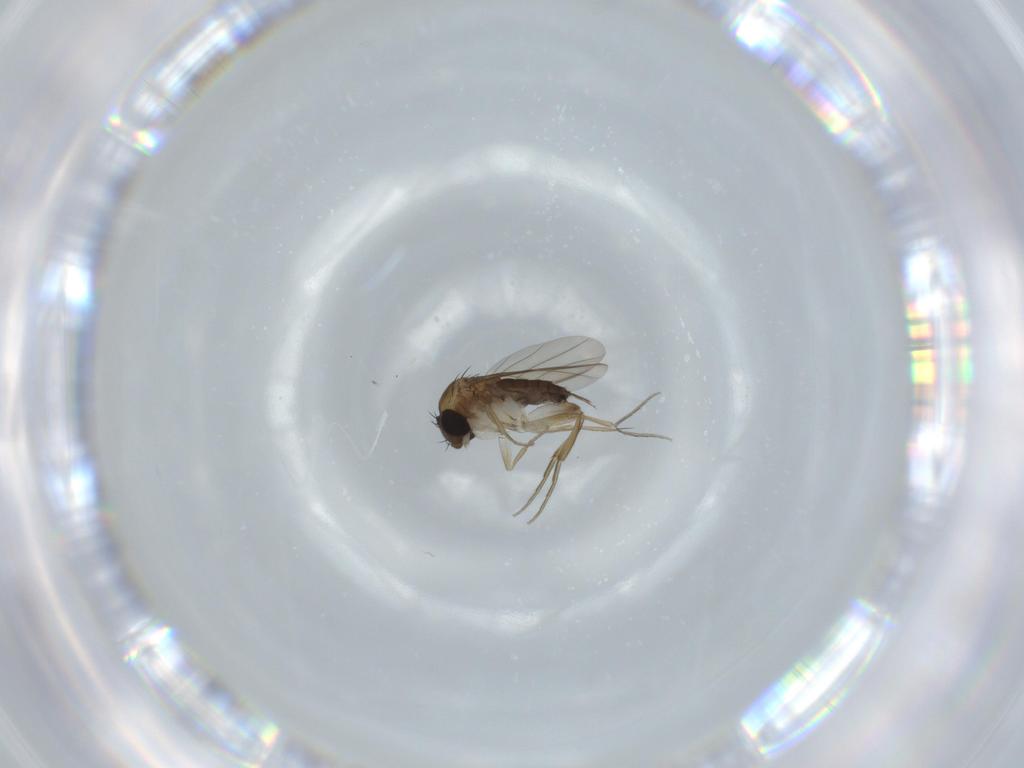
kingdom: Animalia
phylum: Arthropoda
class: Insecta
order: Diptera
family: Phoridae
